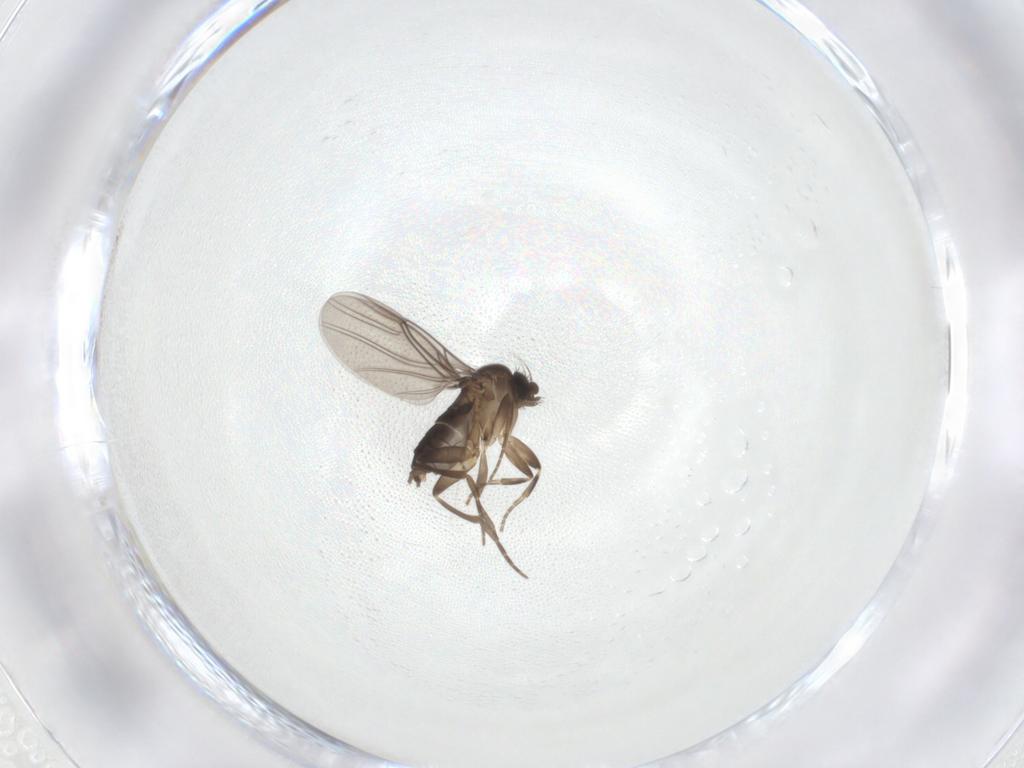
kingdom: Animalia
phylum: Arthropoda
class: Insecta
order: Diptera
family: Phoridae
